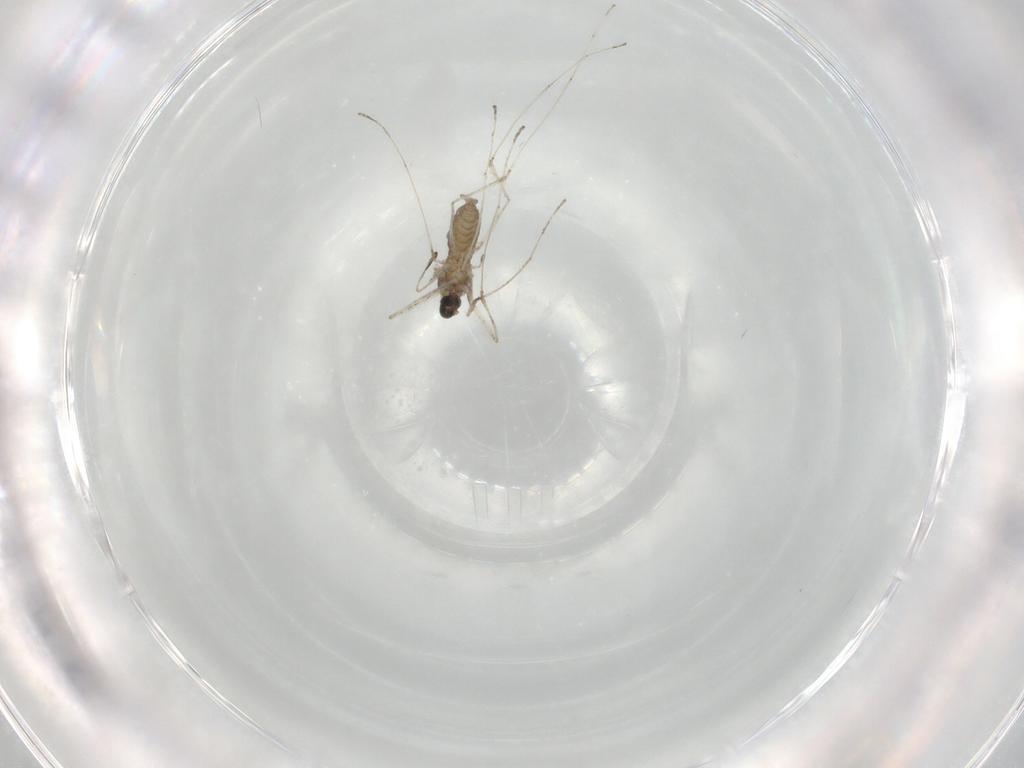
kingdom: Animalia
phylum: Arthropoda
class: Insecta
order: Diptera
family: Cecidomyiidae
